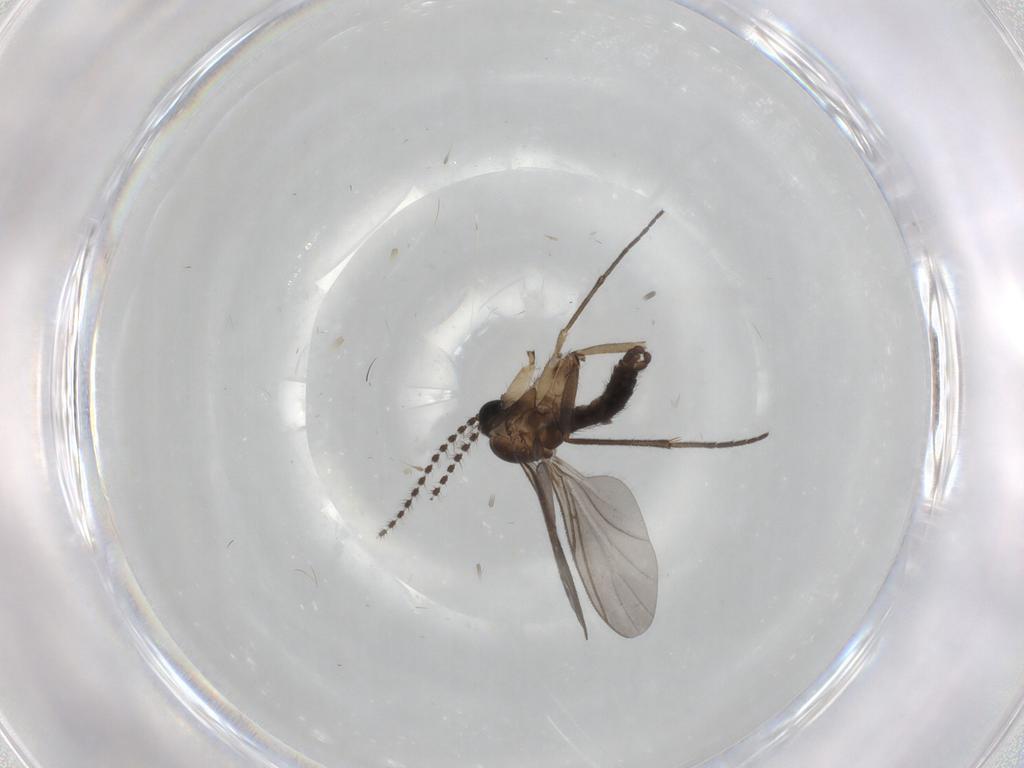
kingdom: Animalia
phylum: Arthropoda
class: Insecta
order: Diptera
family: Sciaridae
